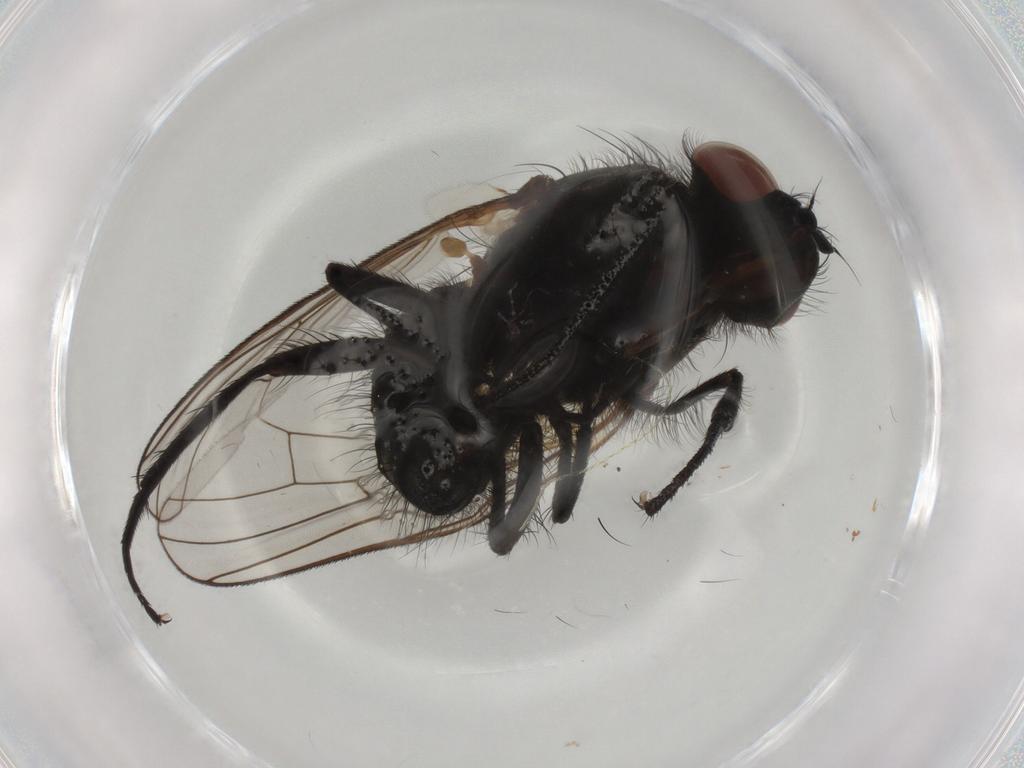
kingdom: Animalia
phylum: Arthropoda
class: Insecta
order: Diptera
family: Anthomyiidae
